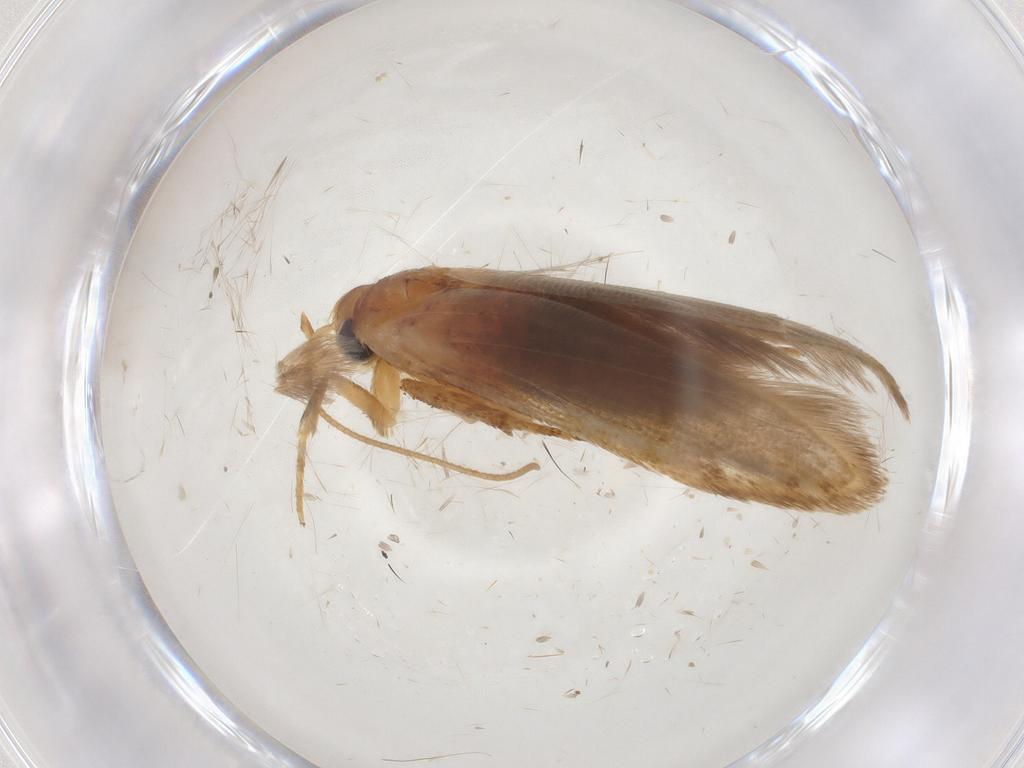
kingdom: Animalia
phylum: Arthropoda
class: Insecta
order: Lepidoptera
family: Blastobasidae
